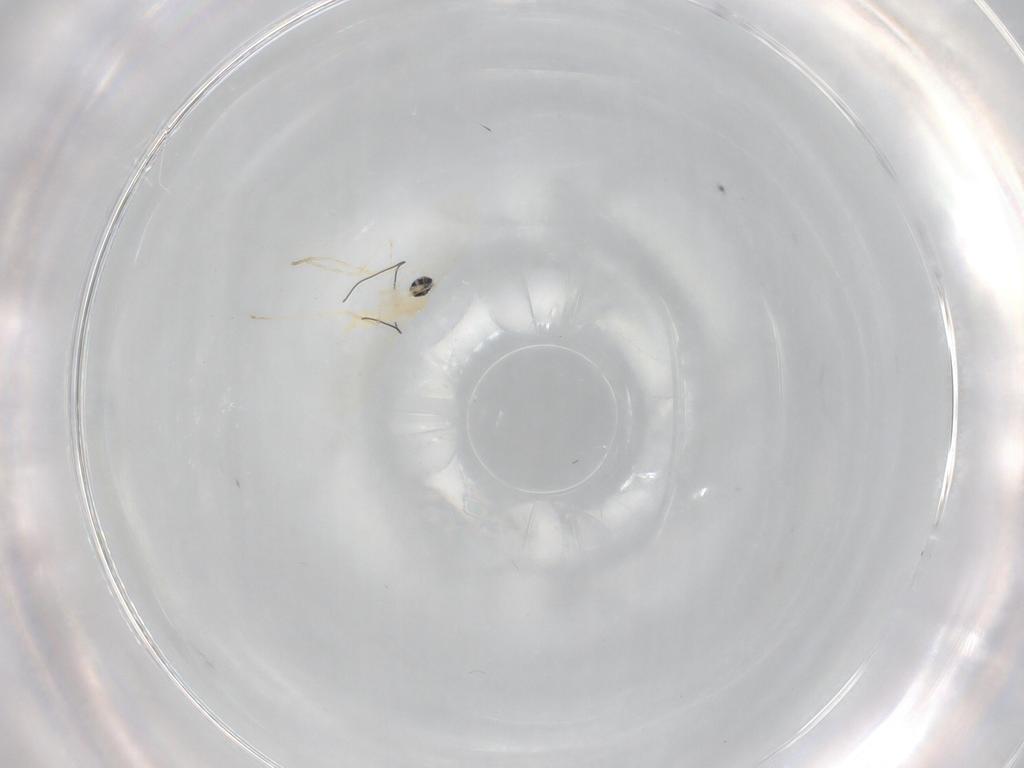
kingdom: Animalia
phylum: Arthropoda
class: Insecta
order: Diptera
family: Cecidomyiidae
